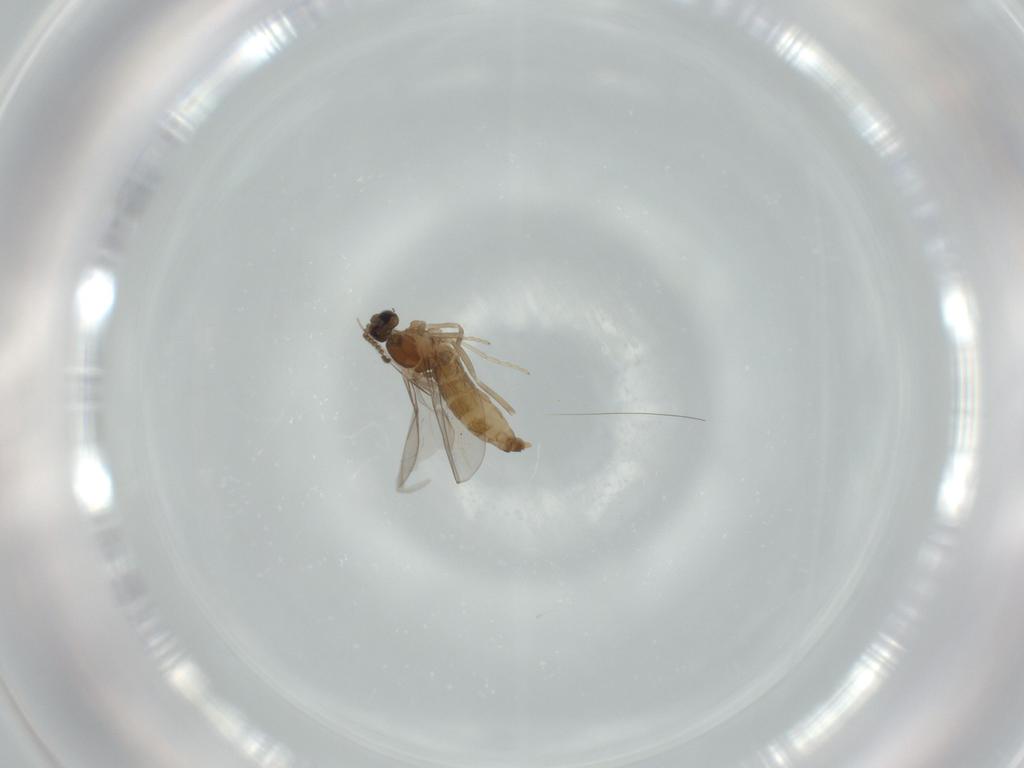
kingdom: Animalia
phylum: Arthropoda
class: Insecta
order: Diptera
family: Cecidomyiidae
